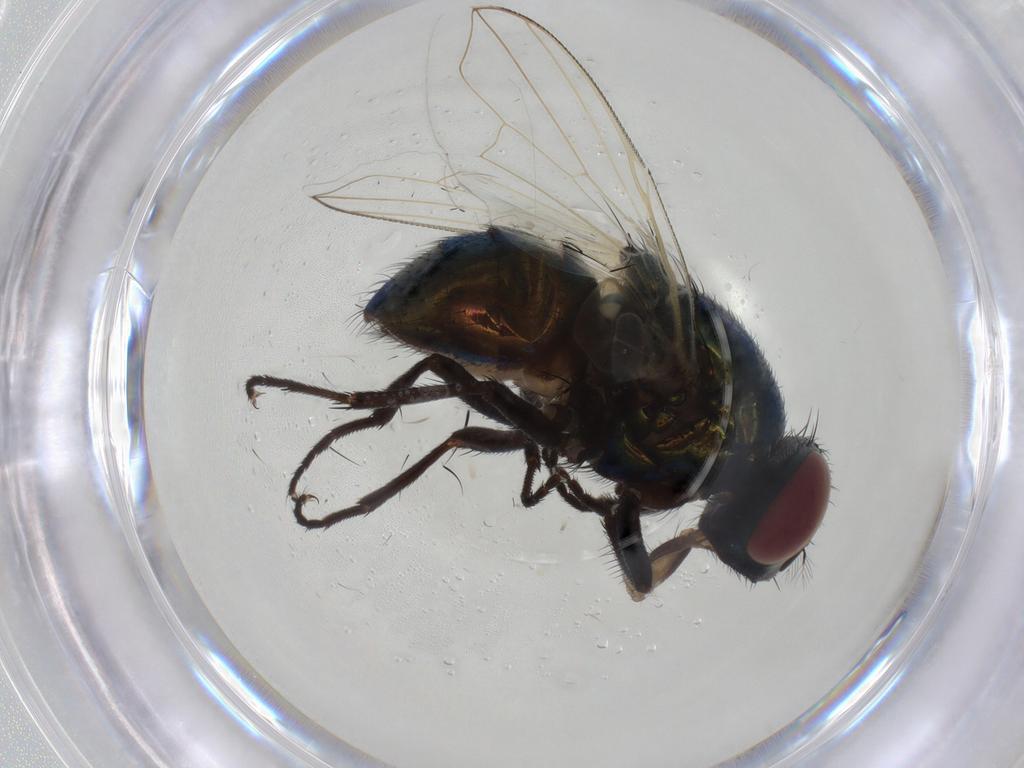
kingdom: Animalia
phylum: Arthropoda
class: Insecta
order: Diptera
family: Muscidae
